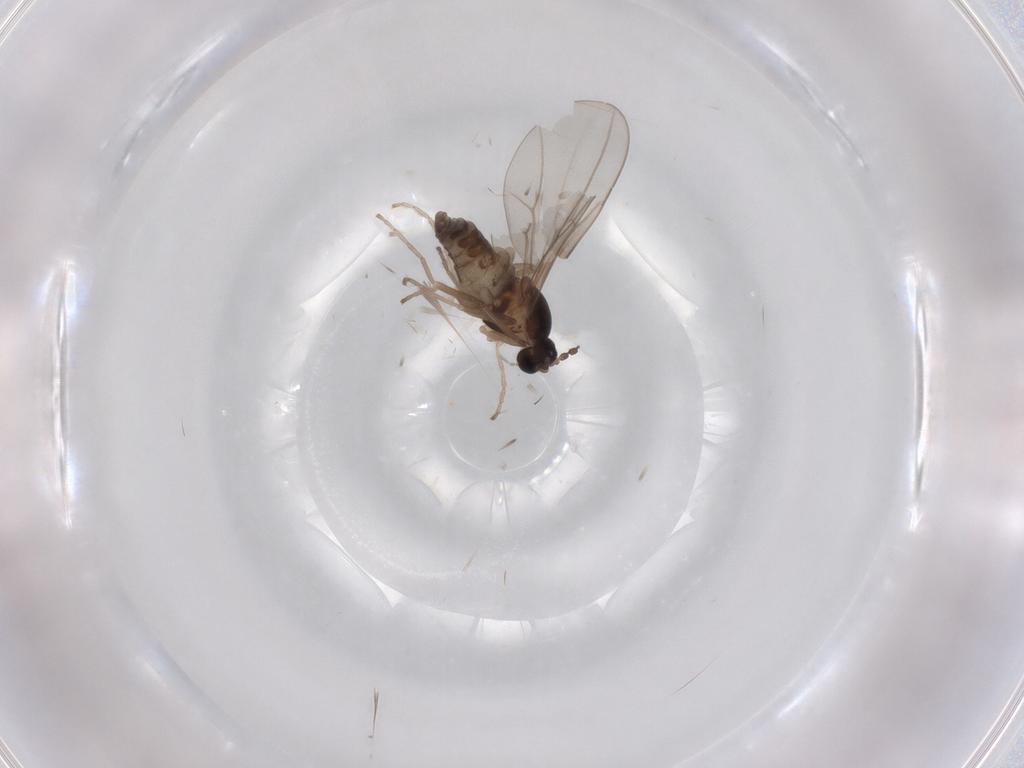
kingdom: Animalia
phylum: Arthropoda
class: Insecta
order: Diptera
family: Cecidomyiidae
